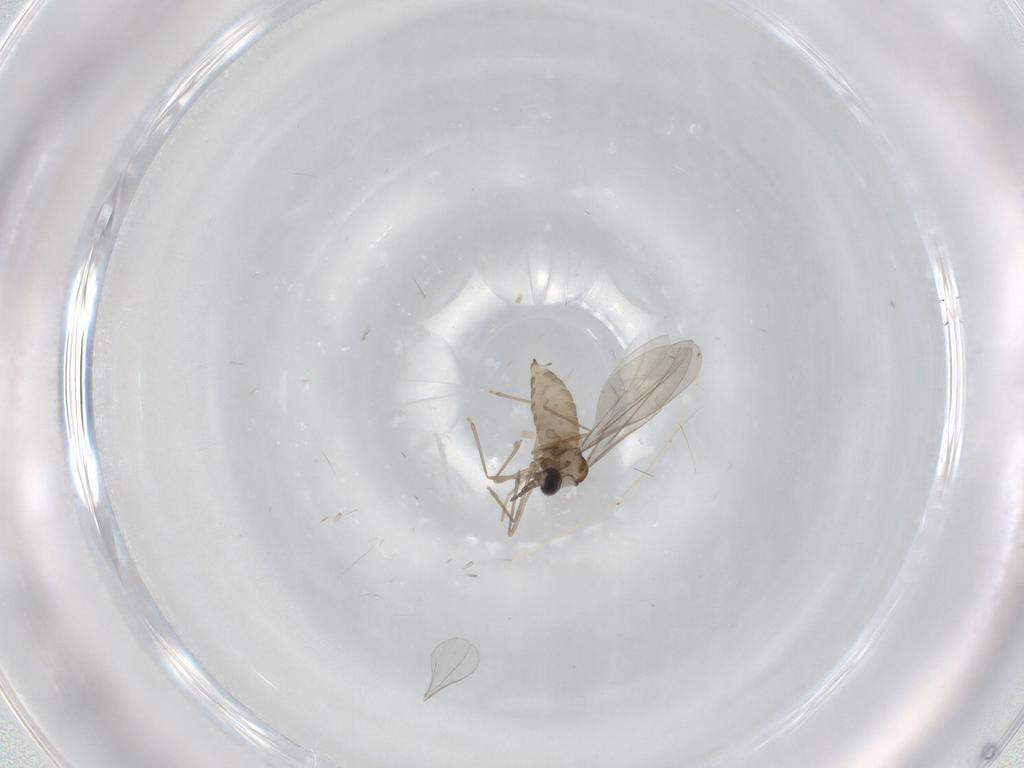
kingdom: Animalia
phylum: Arthropoda
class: Insecta
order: Diptera
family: Cecidomyiidae
